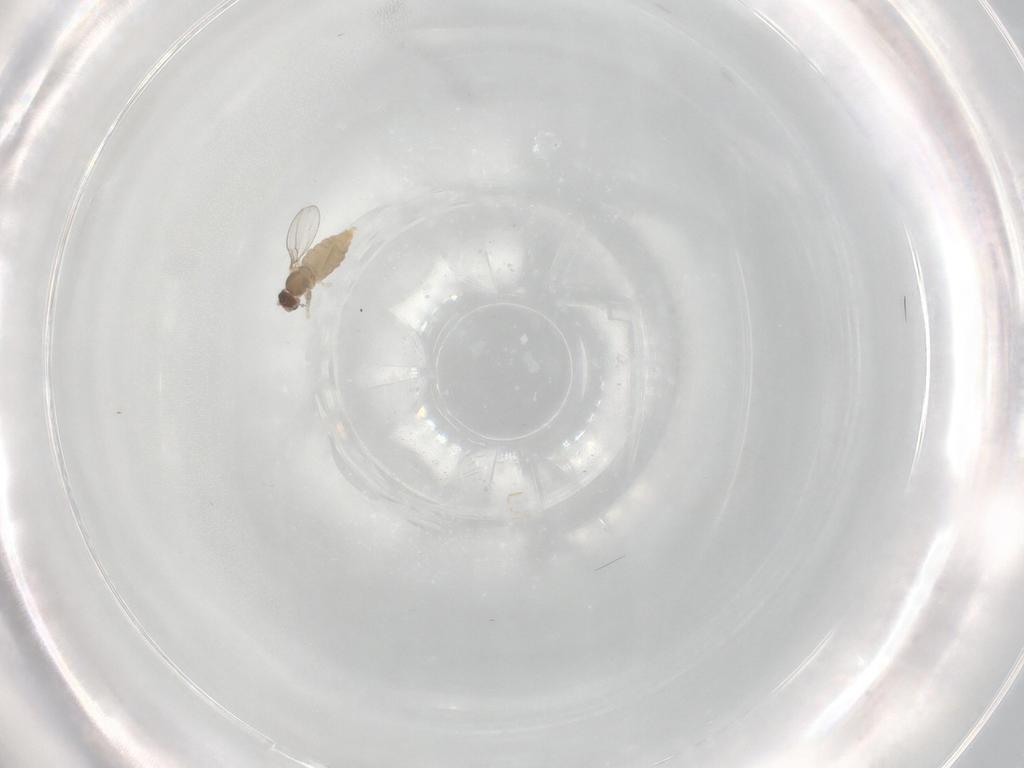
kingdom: Animalia
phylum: Arthropoda
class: Insecta
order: Diptera
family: Cecidomyiidae
